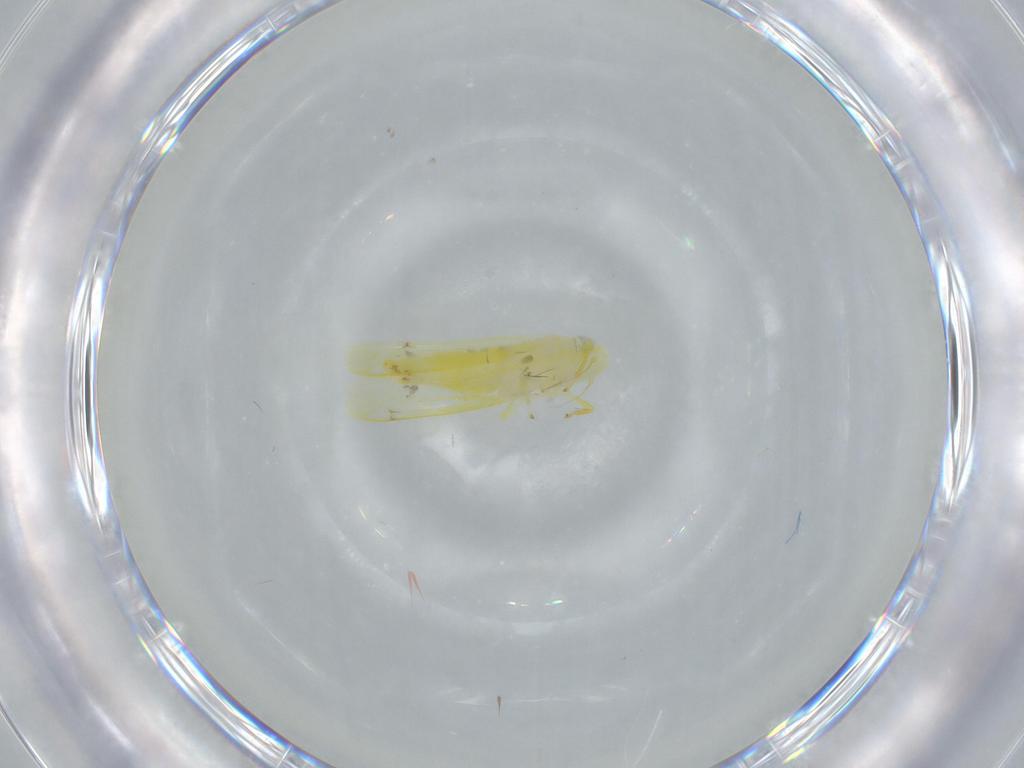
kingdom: Animalia
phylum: Arthropoda
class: Insecta
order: Hemiptera
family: Cicadellidae
